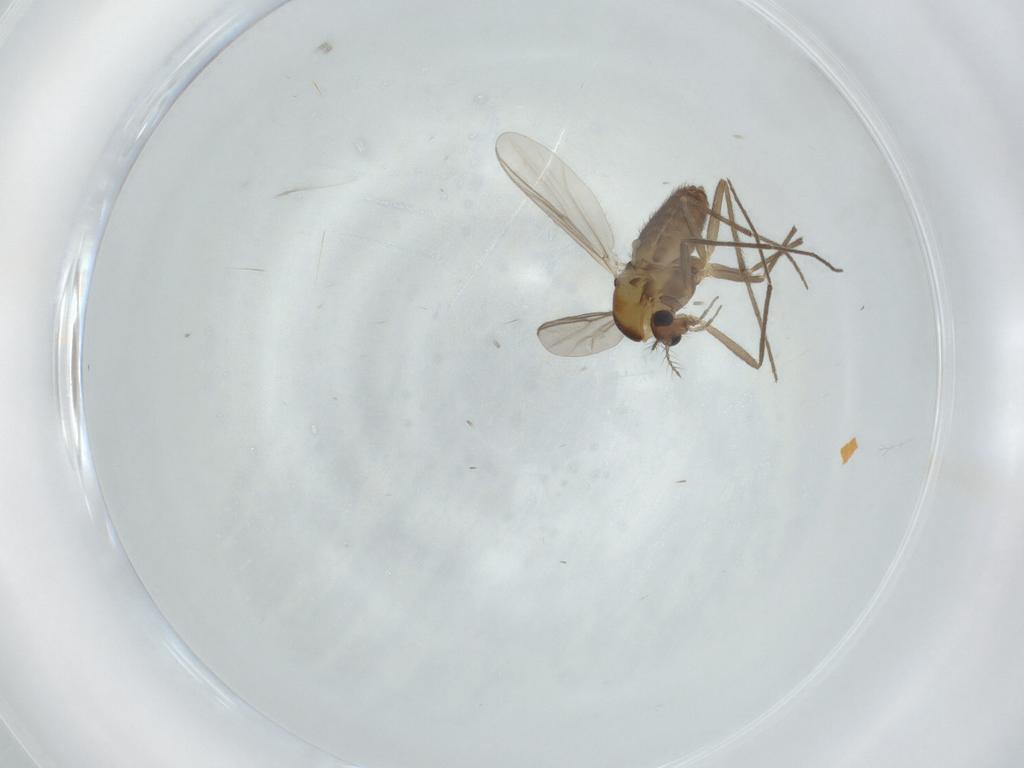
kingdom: Animalia
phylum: Arthropoda
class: Insecta
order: Diptera
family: Chironomidae
